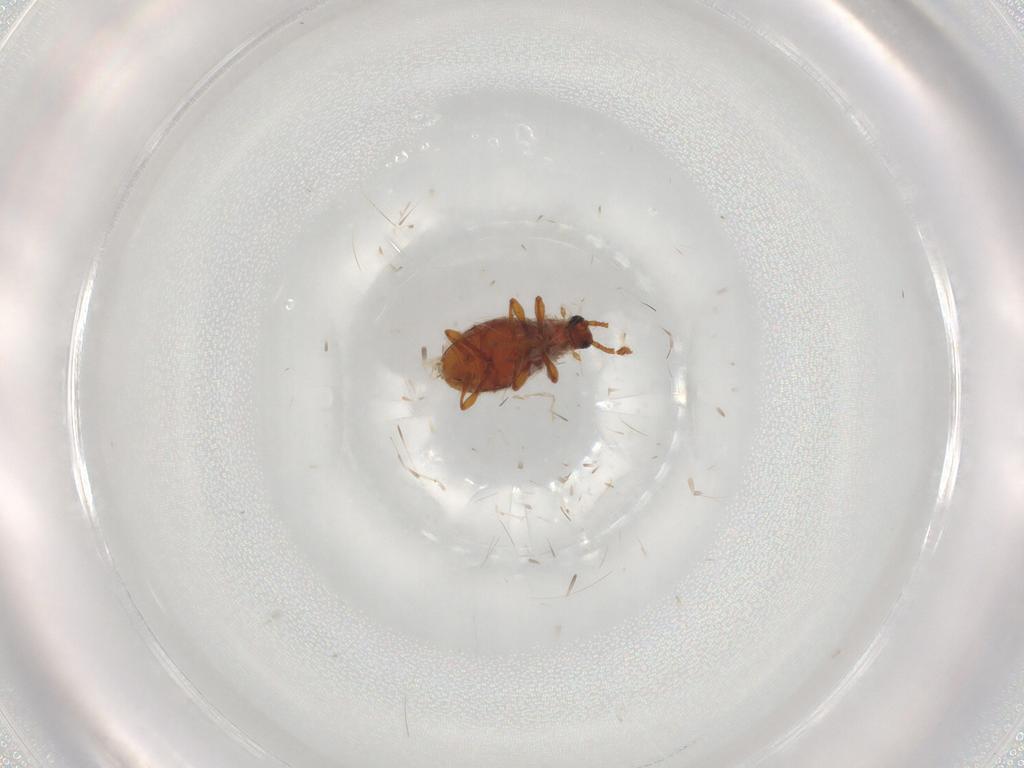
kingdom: Animalia
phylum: Arthropoda
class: Insecta
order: Coleoptera
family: Staphylinidae
